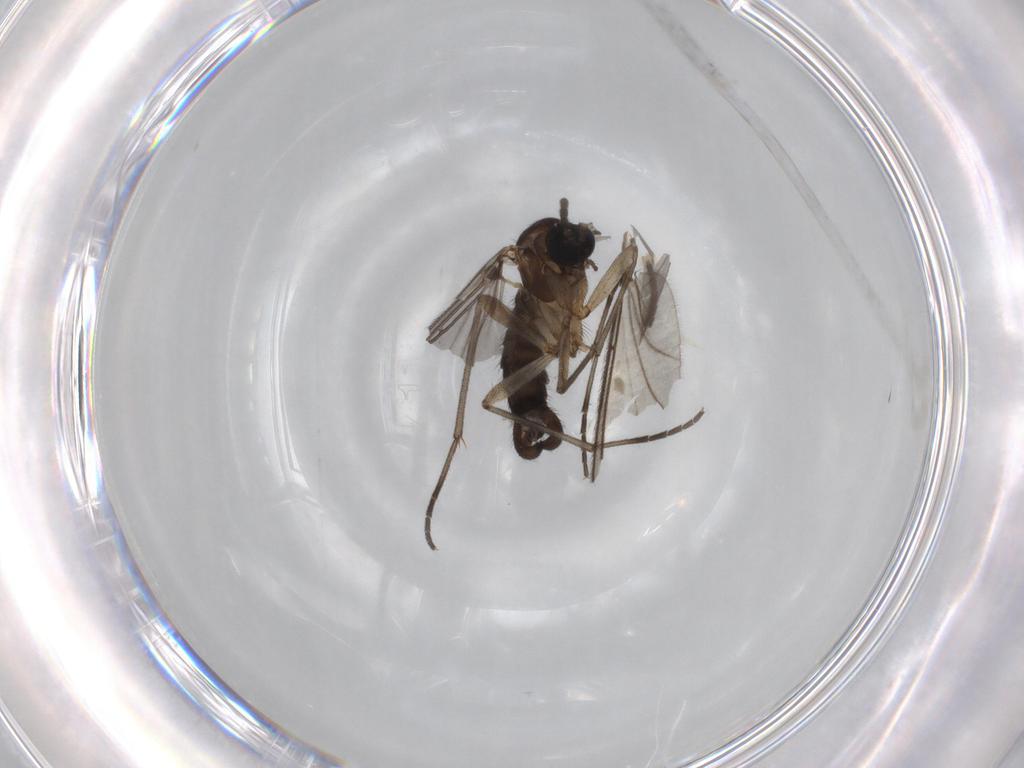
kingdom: Animalia
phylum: Arthropoda
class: Insecta
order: Diptera
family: Sciaridae
